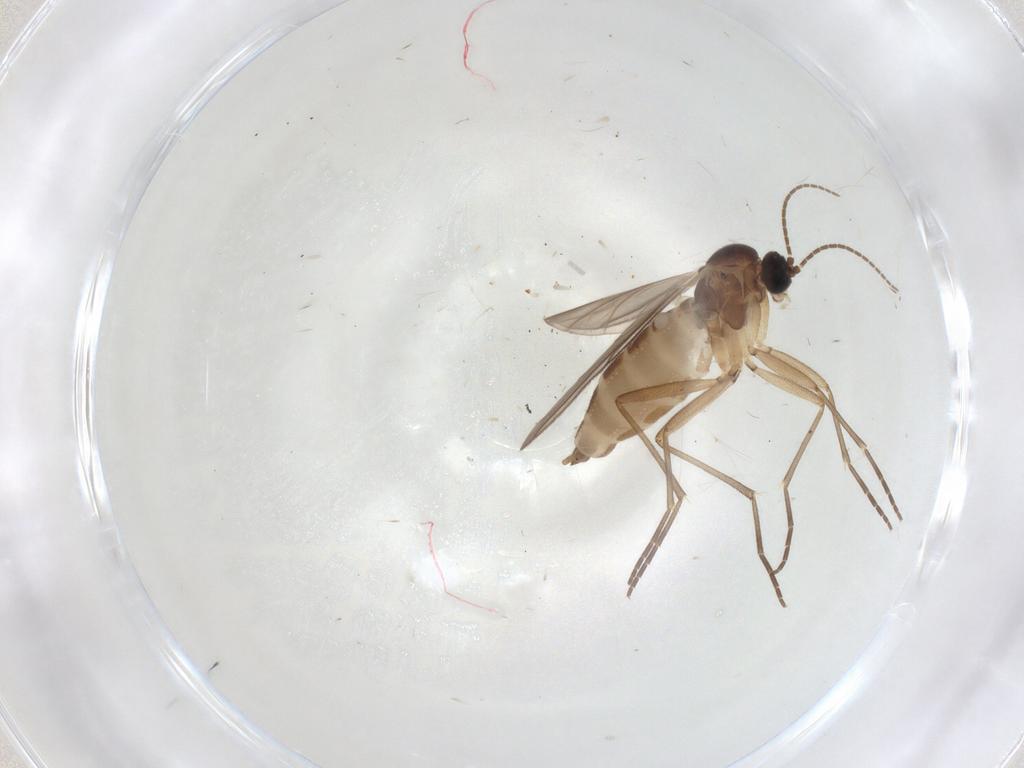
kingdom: Animalia
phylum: Arthropoda
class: Insecta
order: Diptera
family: Sciaridae
